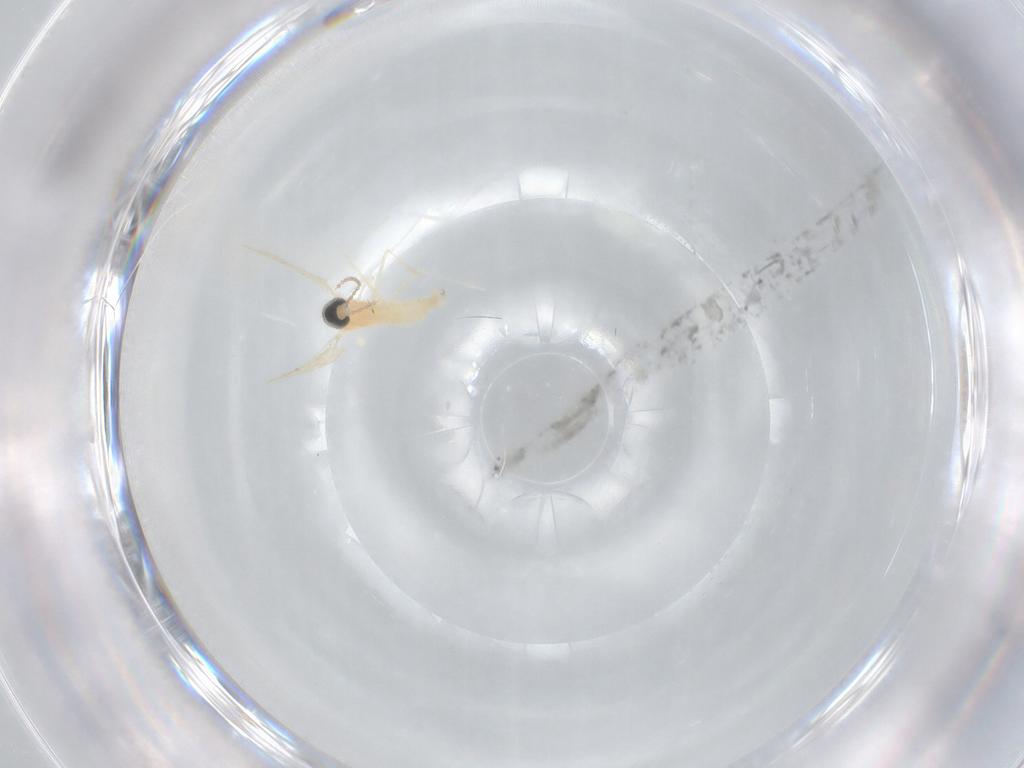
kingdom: Animalia
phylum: Arthropoda
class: Insecta
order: Diptera
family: Cecidomyiidae
